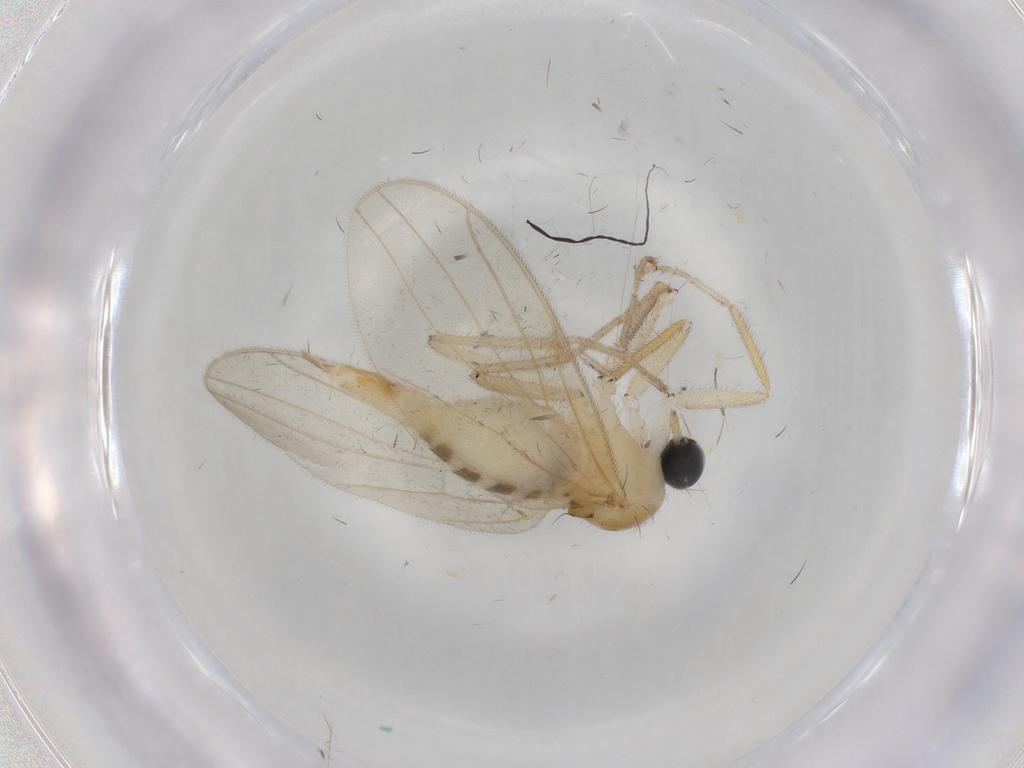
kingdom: Animalia
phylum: Arthropoda
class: Insecta
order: Diptera
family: Hybotidae
